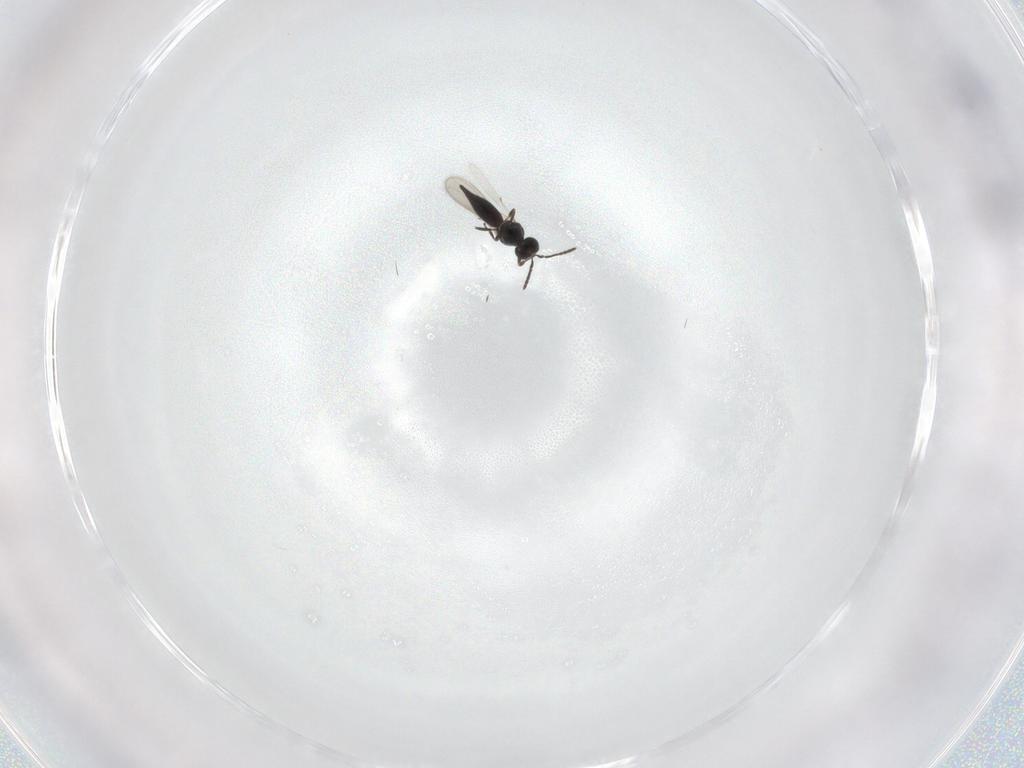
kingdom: Animalia
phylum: Arthropoda
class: Insecta
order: Hymenoptera
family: Scelionidae
